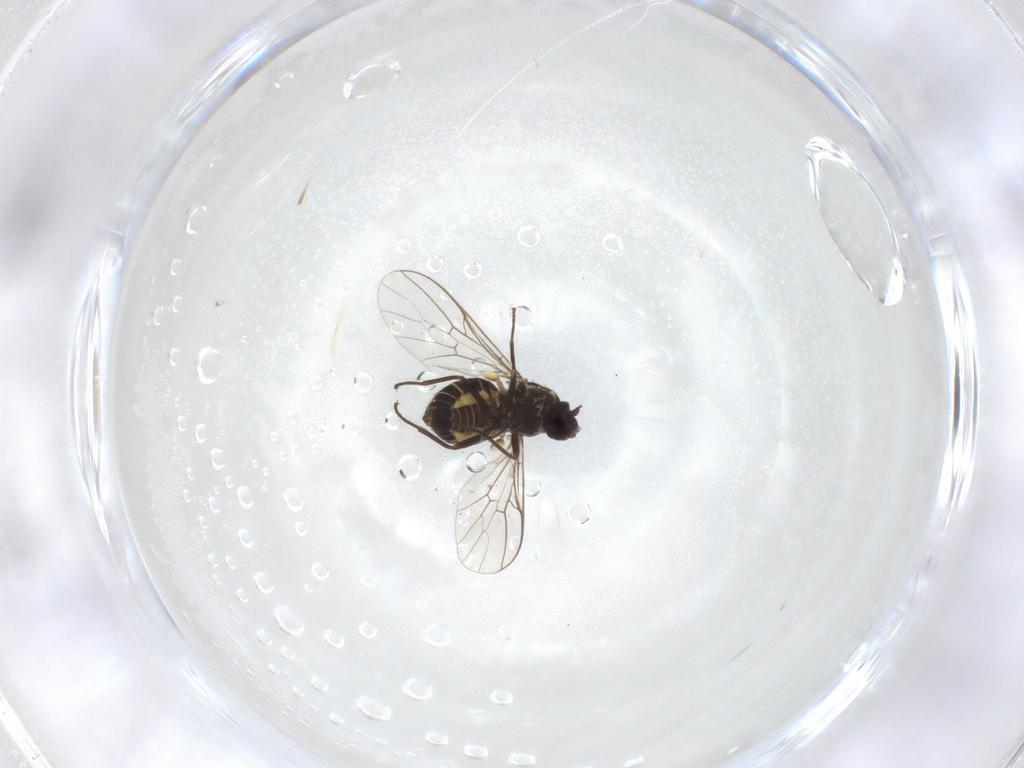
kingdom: Animalia
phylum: Arthropoda
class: Insecta
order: Diptera
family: Syrphidae
